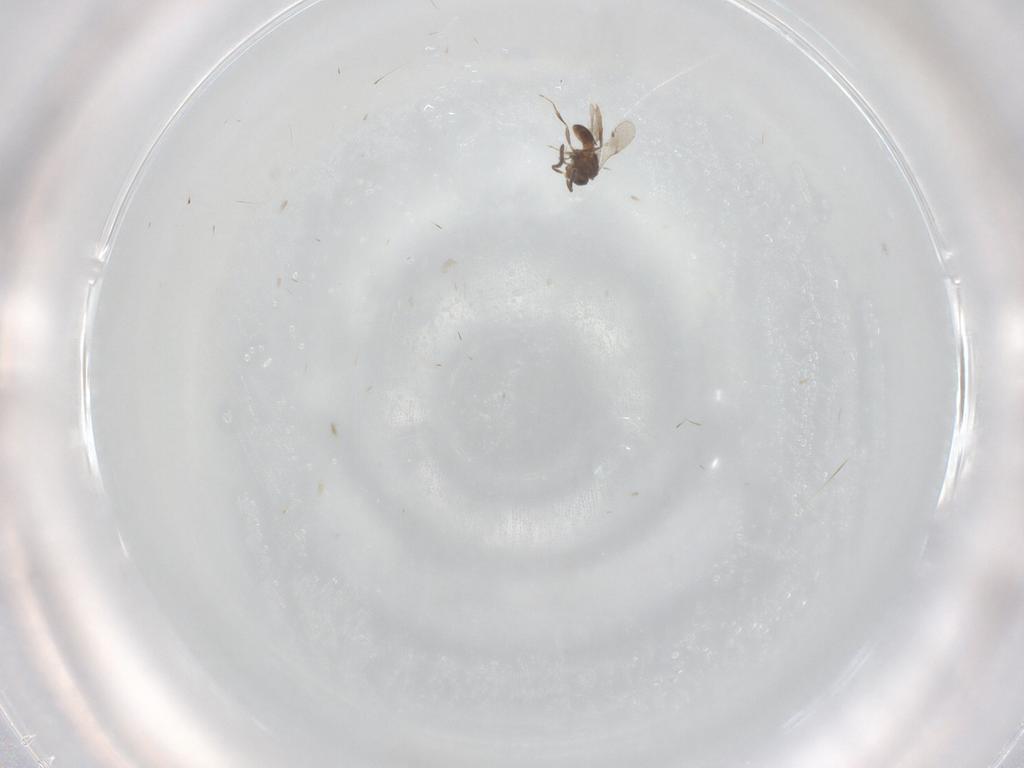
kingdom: Animalia
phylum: Arthropoda
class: Insecta
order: Hymenoptera
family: Scelionidae
